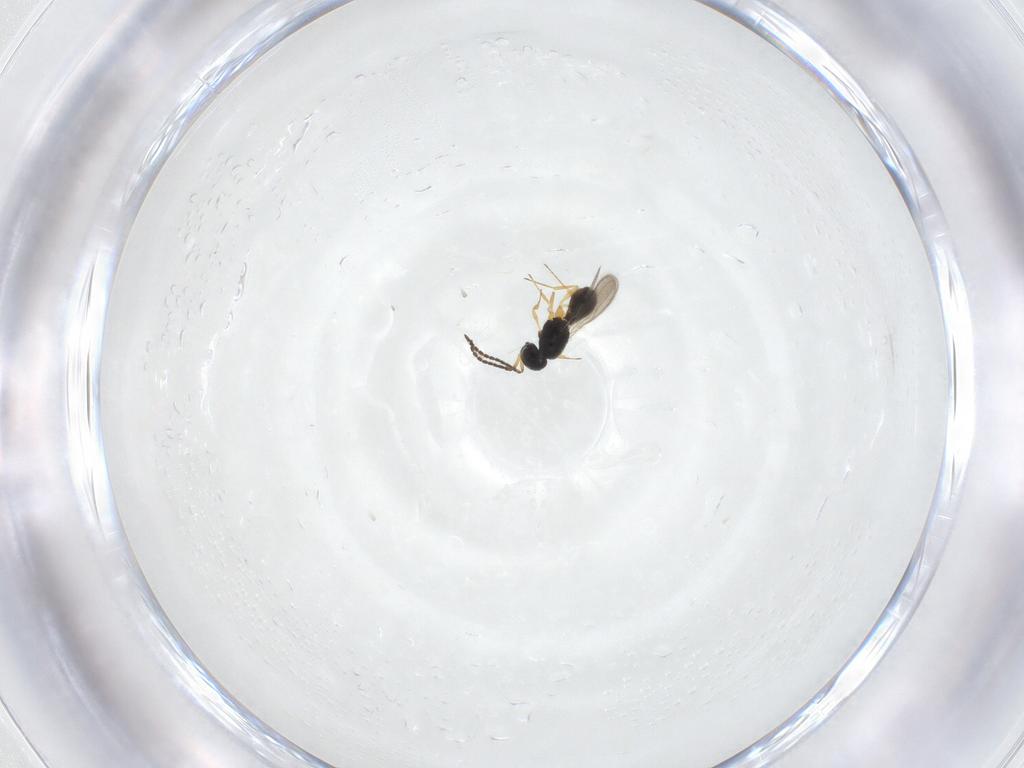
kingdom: Animalia
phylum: Arthropoda
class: Insecta
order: Hymenoptera
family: Scelionidae
